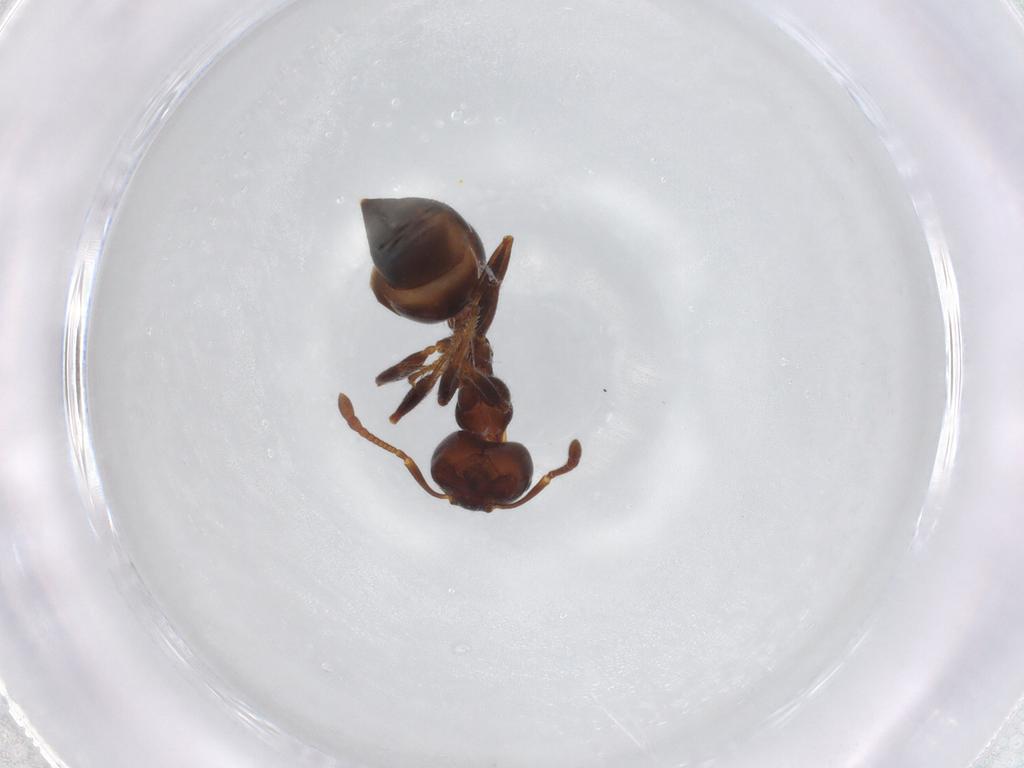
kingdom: Animalia
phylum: Arthropoda
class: Insecta
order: Hymenoptera
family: Formicidae
